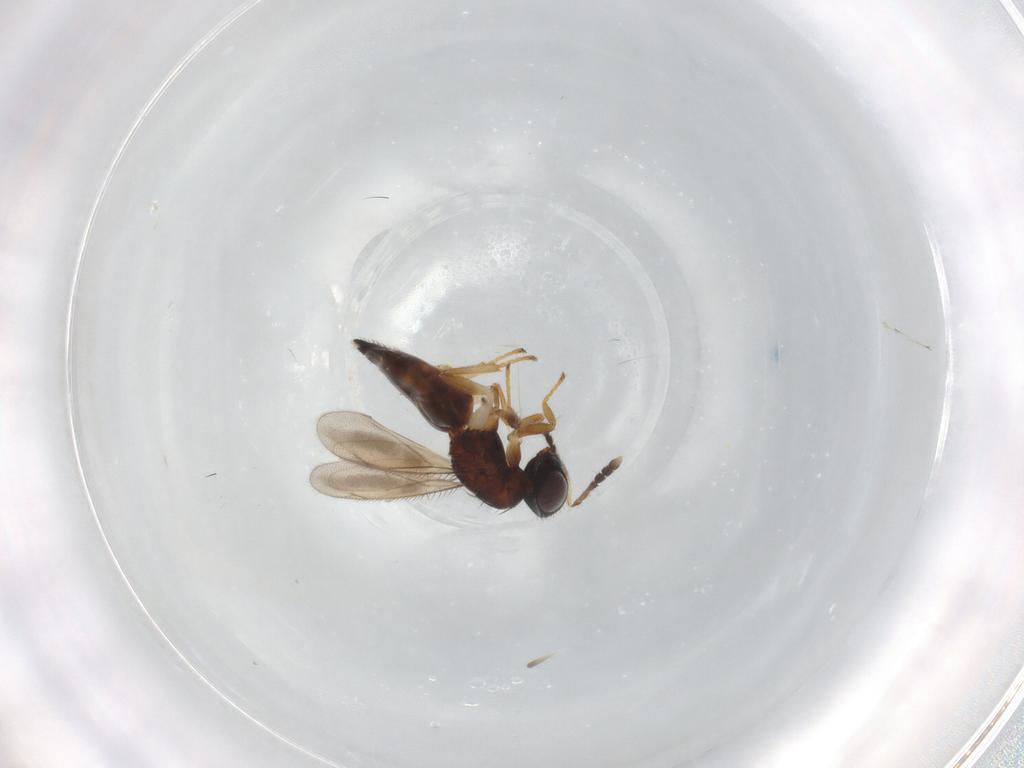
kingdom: Animalia
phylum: Arthropoda
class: Insecta
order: Hymenoptera
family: Eulophidae
